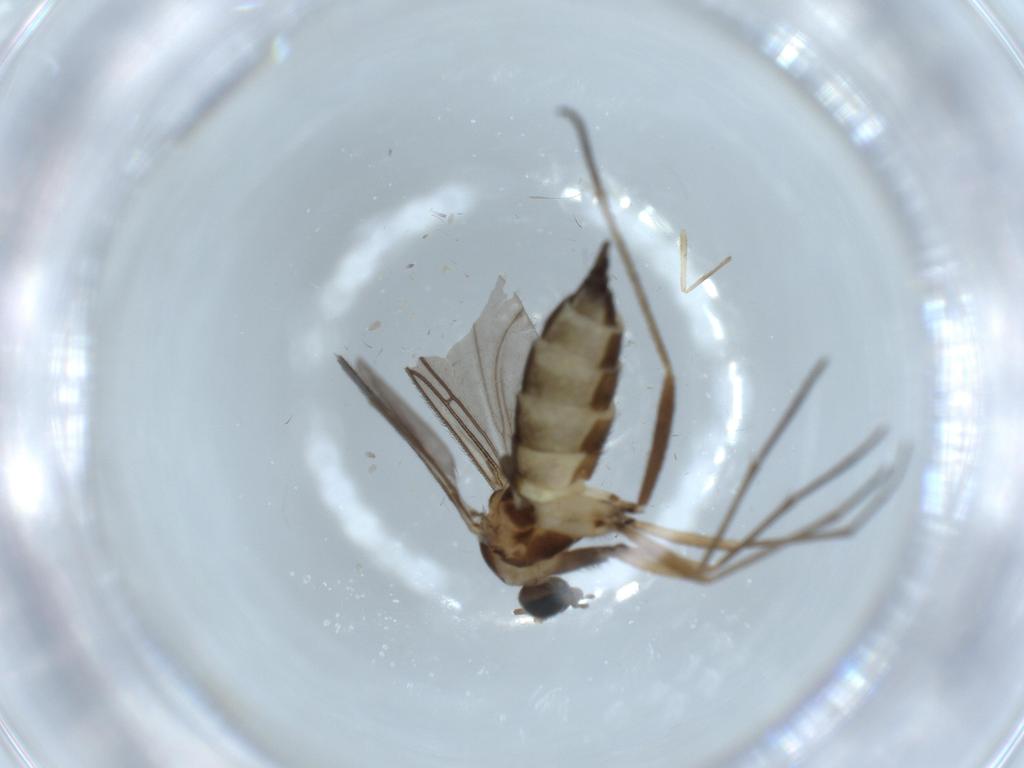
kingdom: Animalia
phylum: Arthropoda
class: Insecta
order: Diptera
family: Sciaridae
